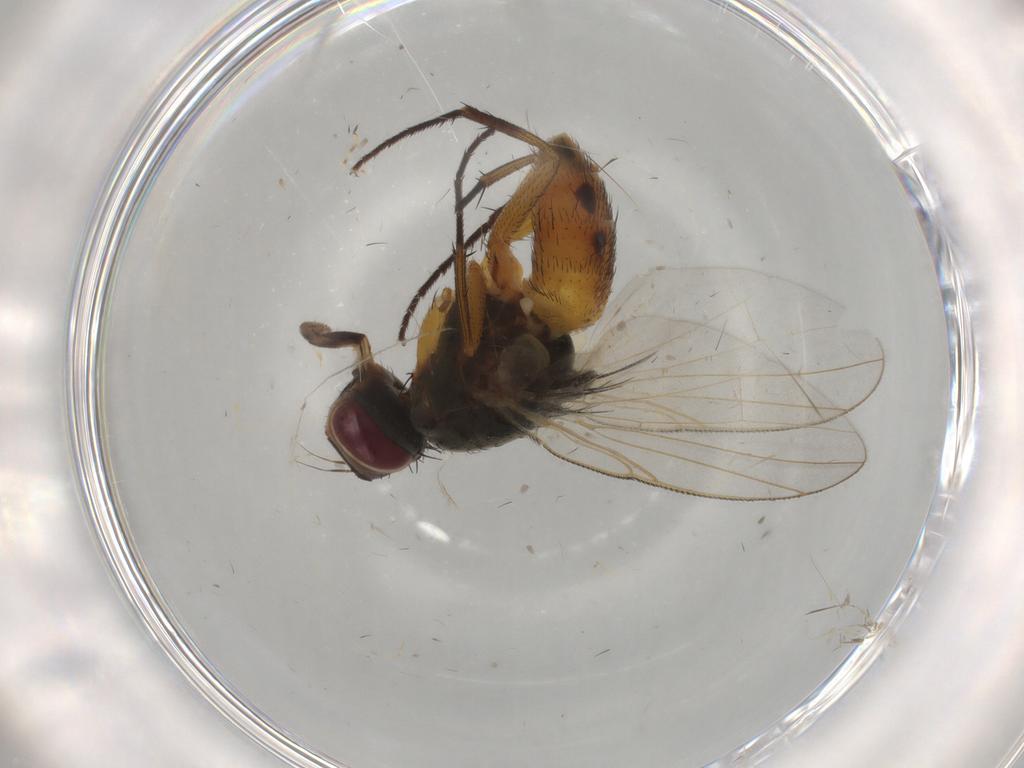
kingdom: Animalia
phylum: Arthropoda
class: Insecta
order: Diptera
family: Muscidae
